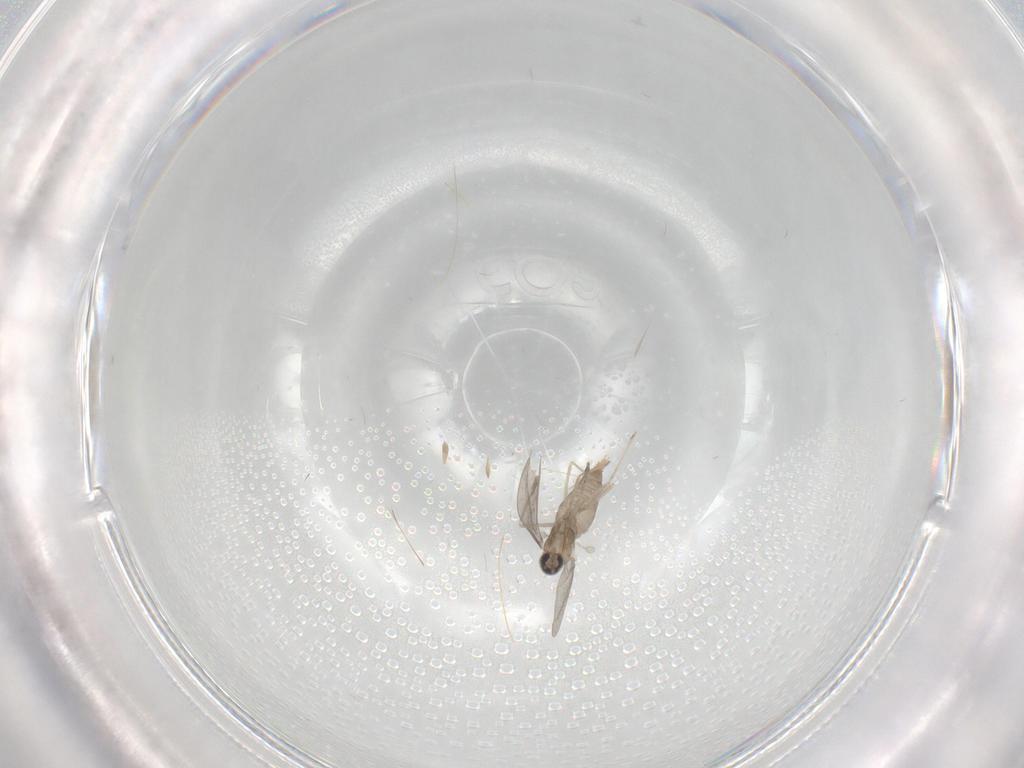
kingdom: Animalia
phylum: Arthropoda
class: Insecta
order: Diptera
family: Cecidomyiidae
